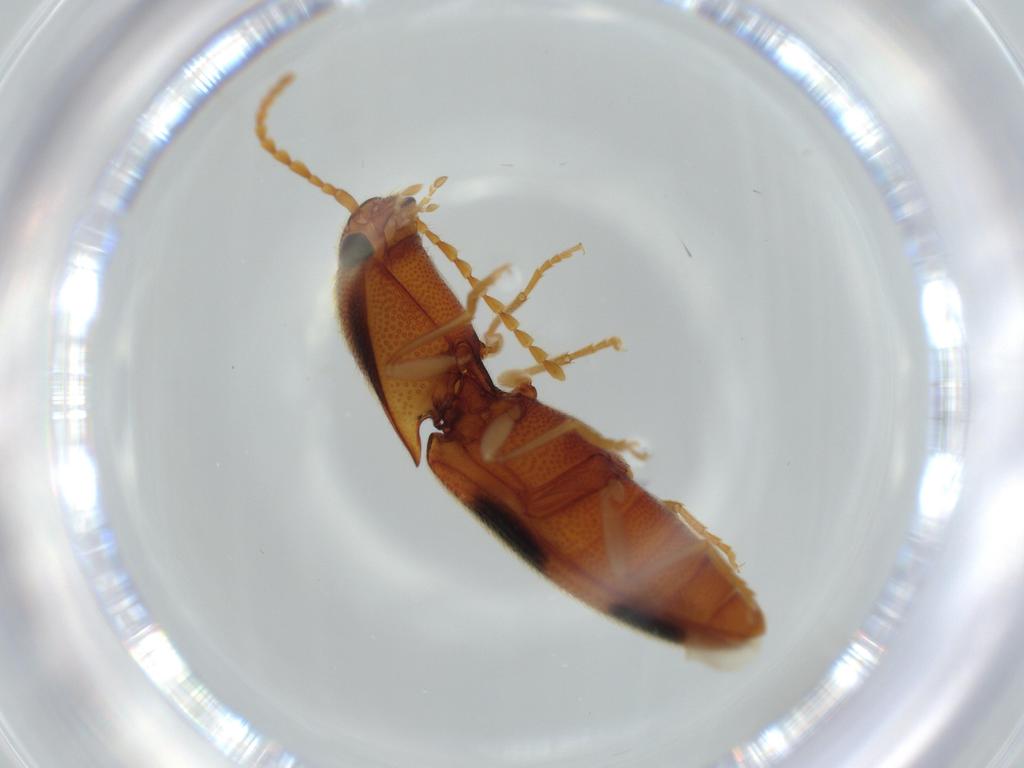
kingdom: Animalia
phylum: Arthropoda
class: Insecta
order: Coleoptera
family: Elateridae
